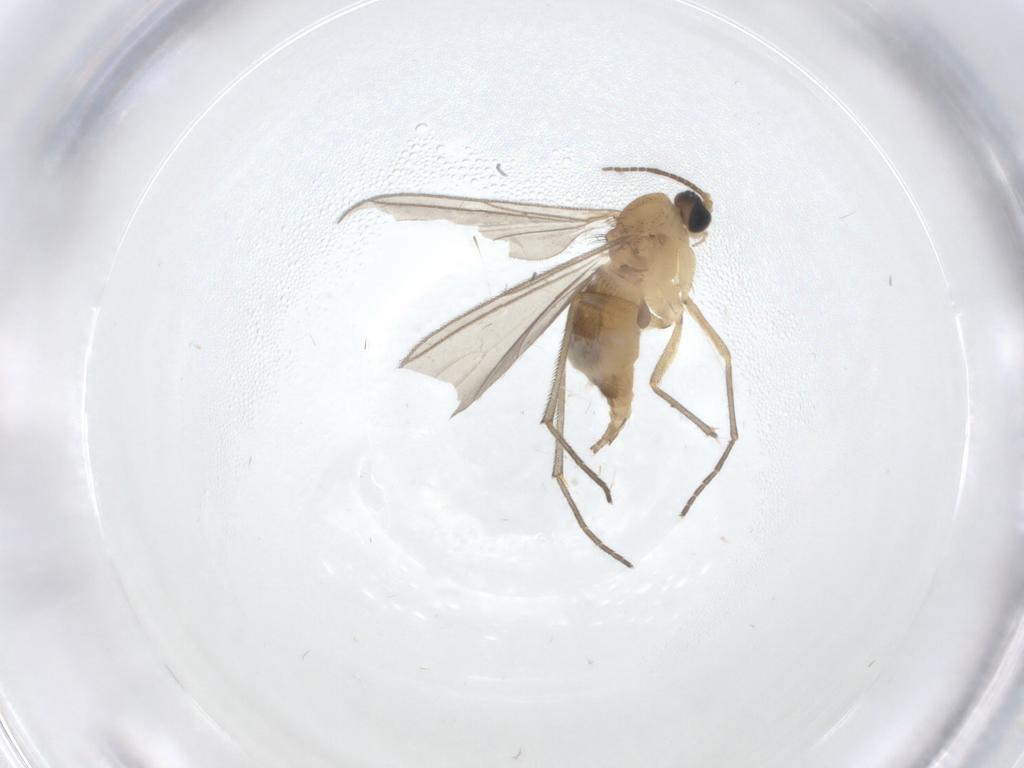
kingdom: Animalia
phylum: Arthropoda
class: Insecta
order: Diptera
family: Sciaridae
